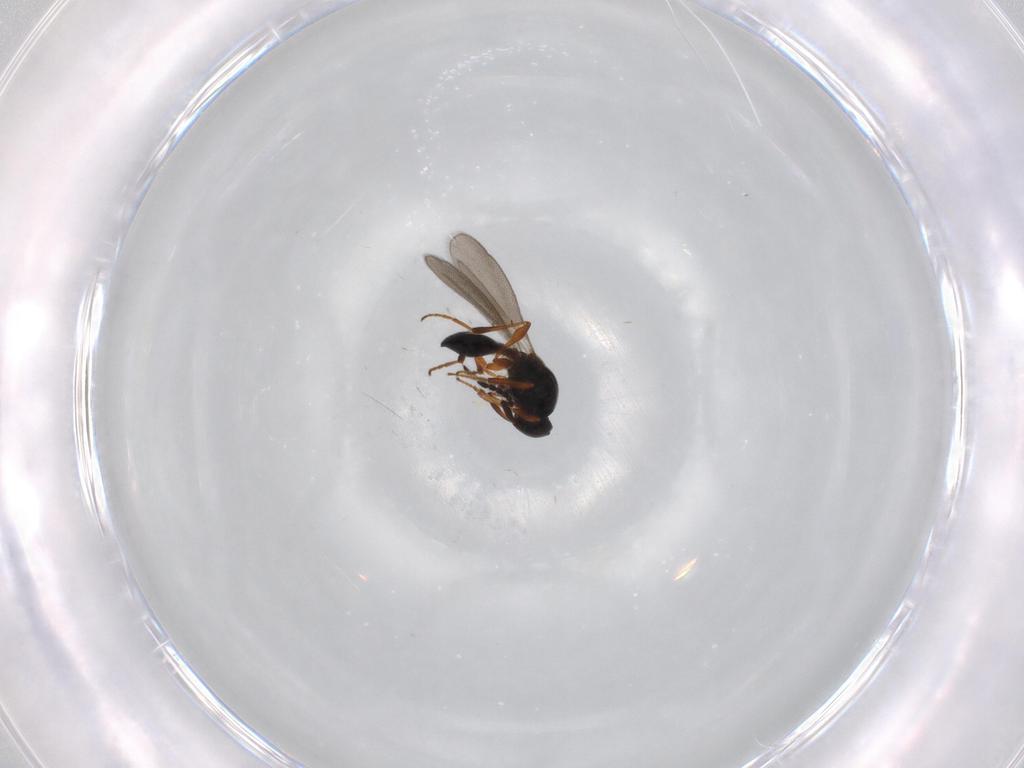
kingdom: Animalia
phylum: Arthropoda
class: Insecta
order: Hymenoptera
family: Platygastridae
